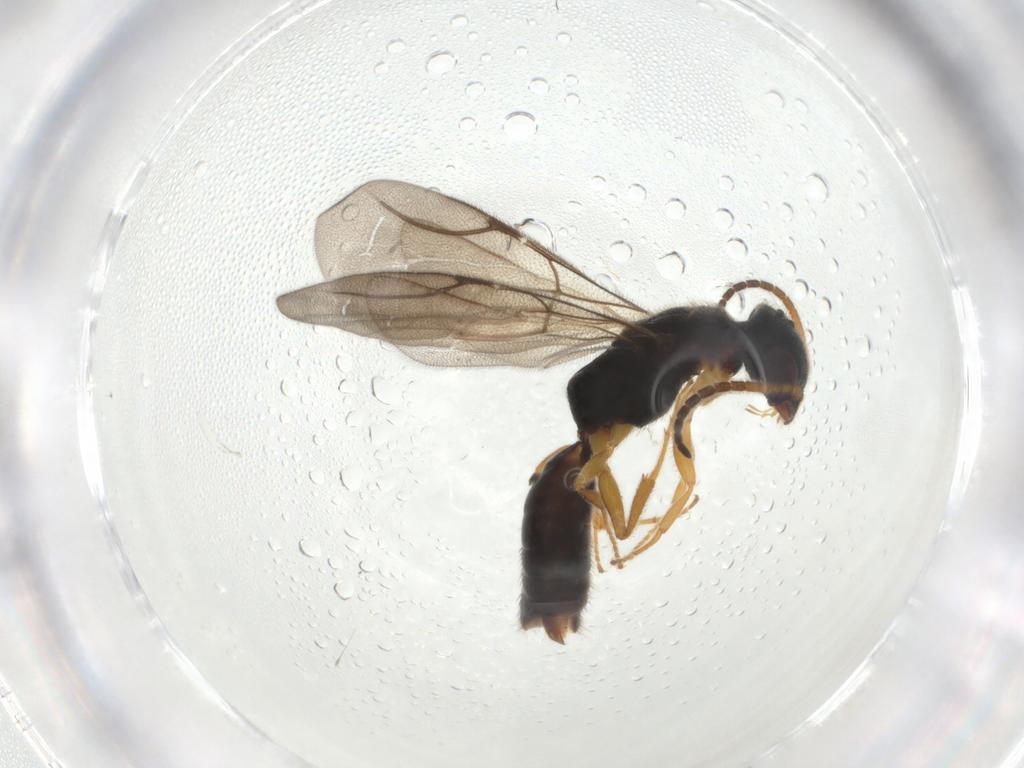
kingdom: Animalia
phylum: Arthropoda
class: Insecta
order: Hymenoptera
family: Bethylidae
